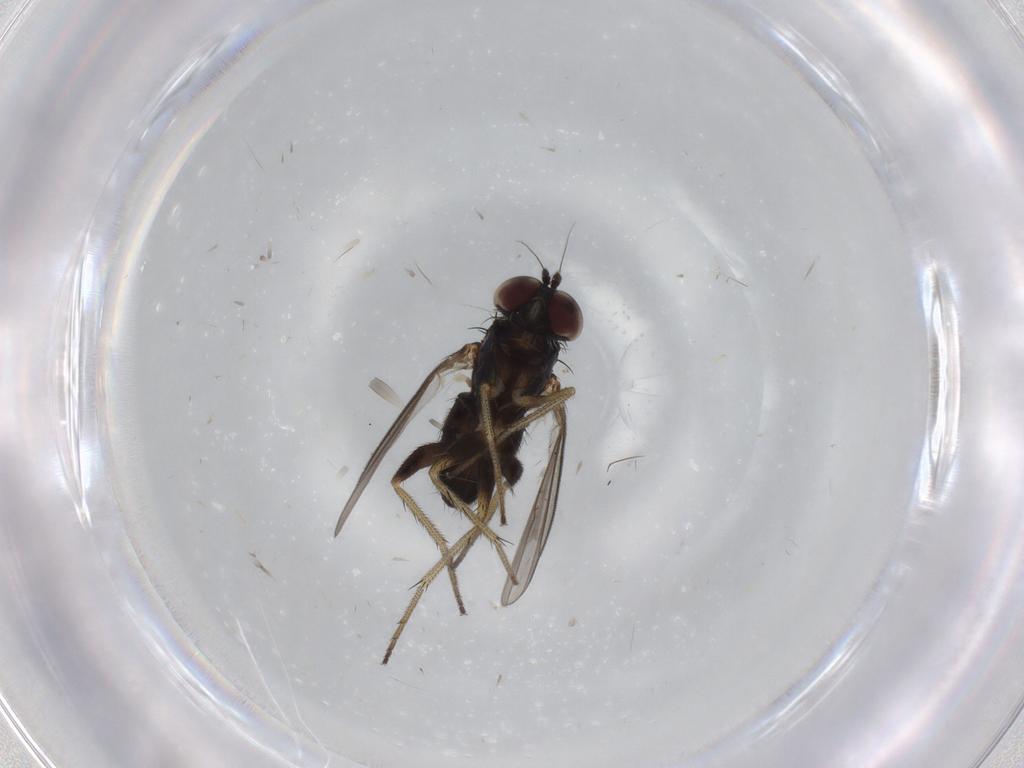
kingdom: Animalia
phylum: Arthropoda
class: Insecta
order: Diptera
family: Dolichopodidae
